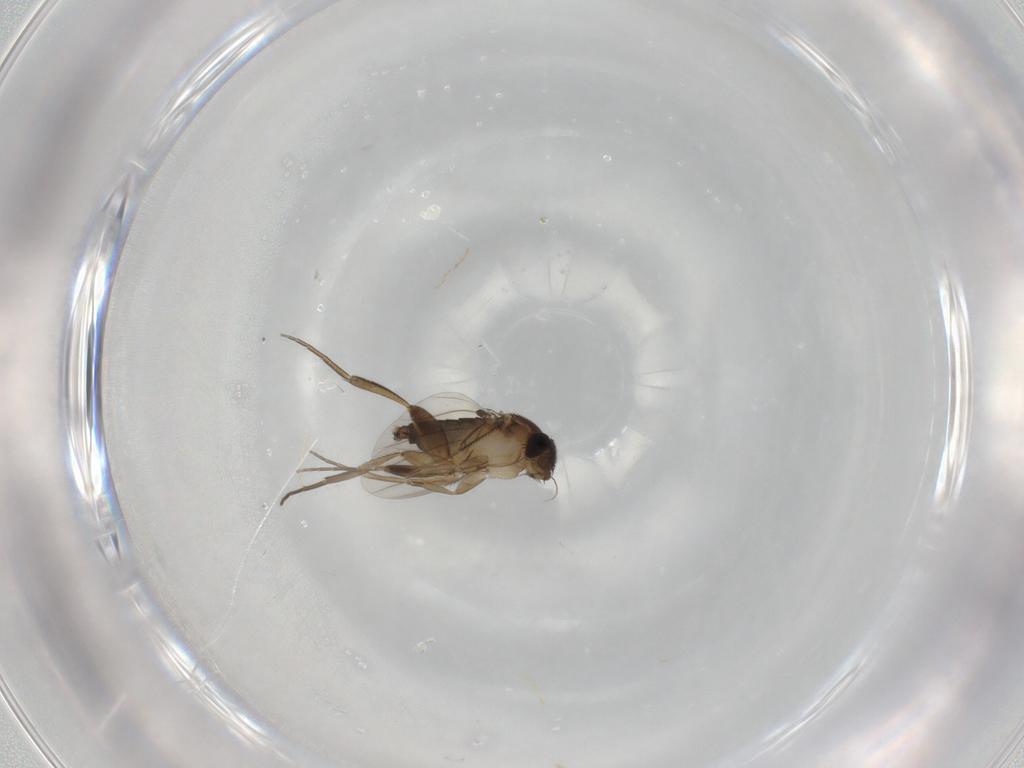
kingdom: Animalia
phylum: Arthropoda
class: Insecta
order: Diptera
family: Phoridae
